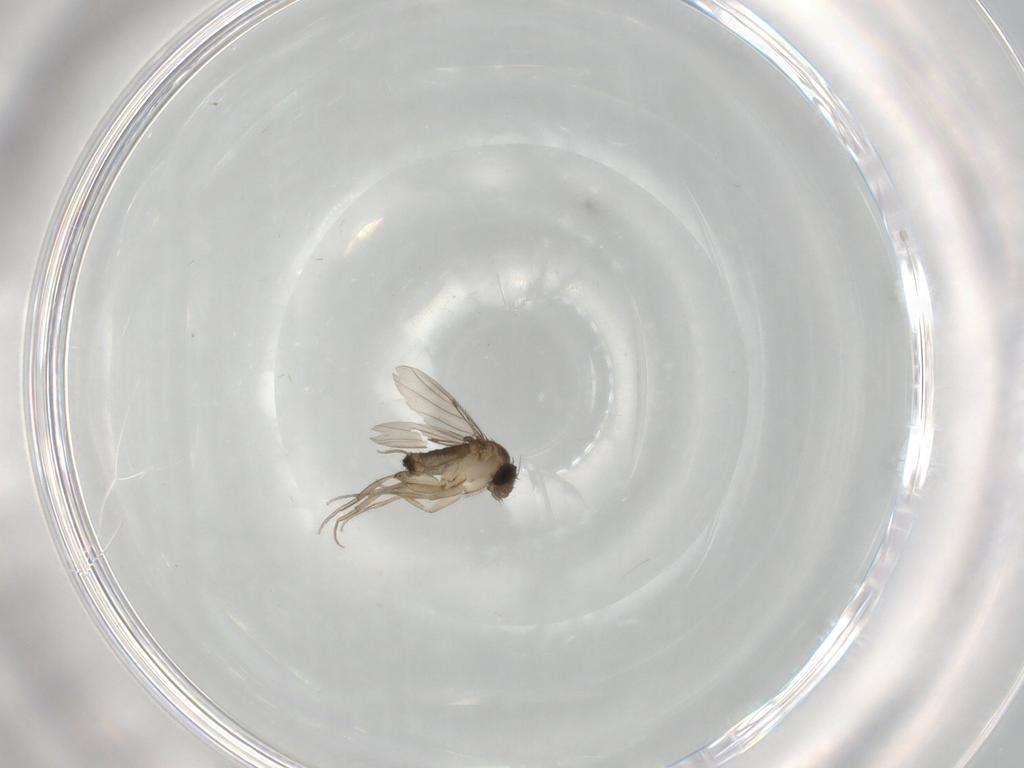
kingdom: Animalia
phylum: Arthropoda
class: Insecta
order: Diptera
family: Phoridae
